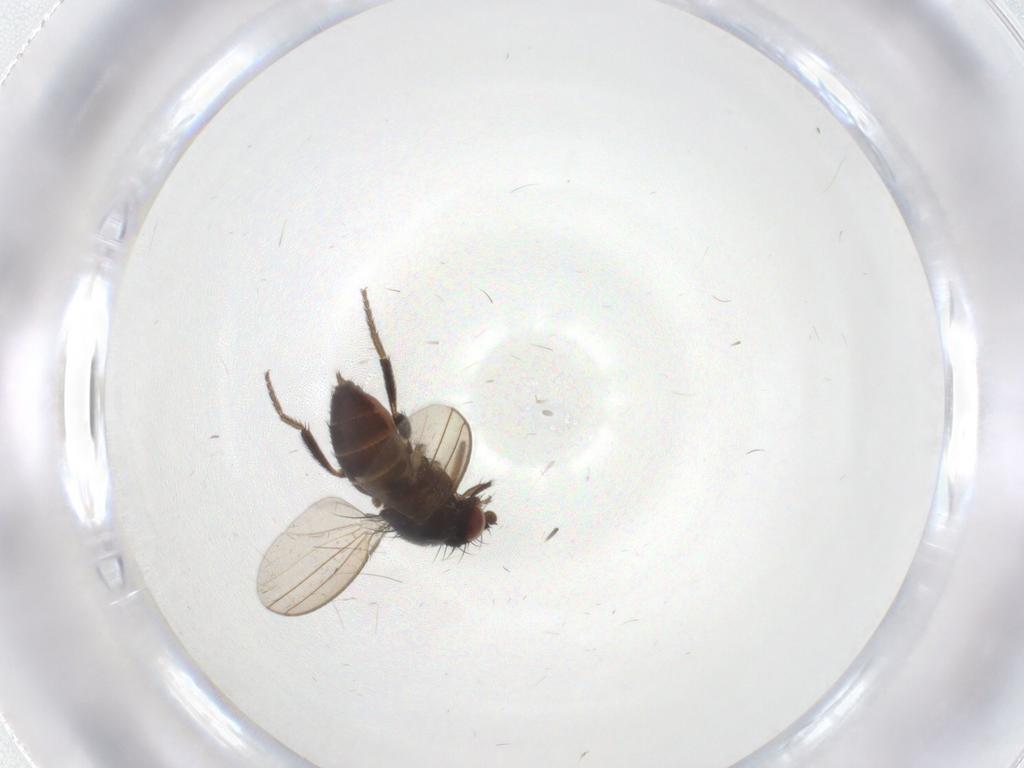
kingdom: Animalia
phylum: Arthropoda
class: Insecta
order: Diptera
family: Milichiidae
